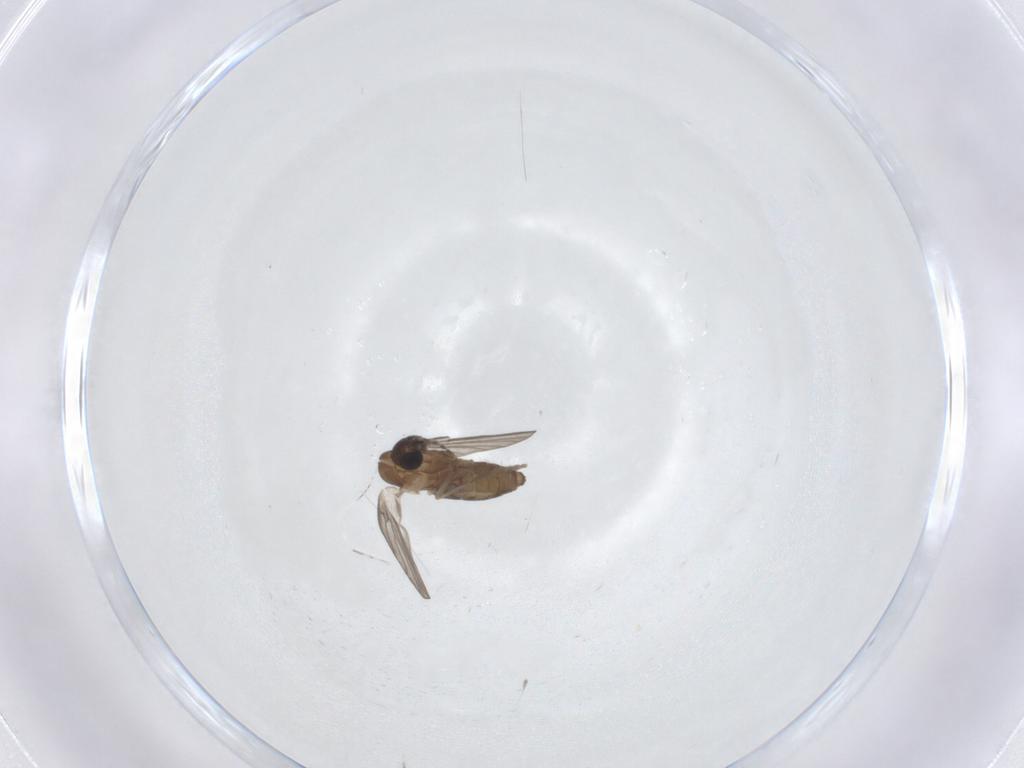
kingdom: Animalia
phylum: Arthropoda
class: Insecta
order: Diptera
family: Psychodidae
